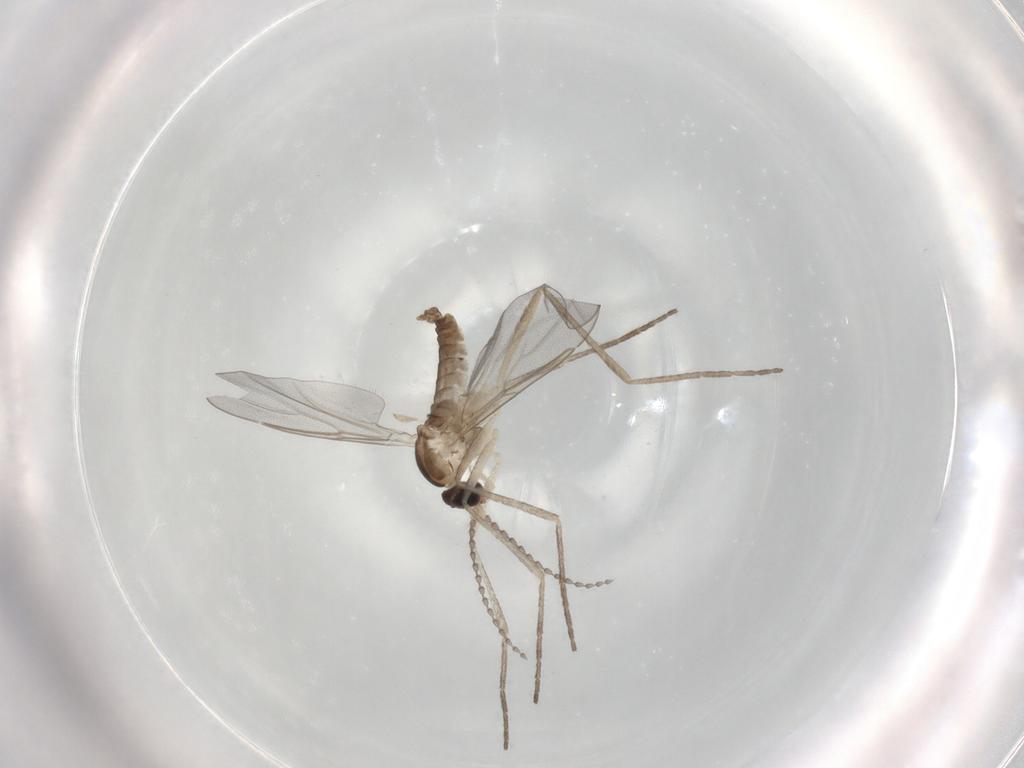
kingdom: Animalia
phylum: Arthropoda
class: Insecta
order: Diptera
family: Cecidomyiidae
